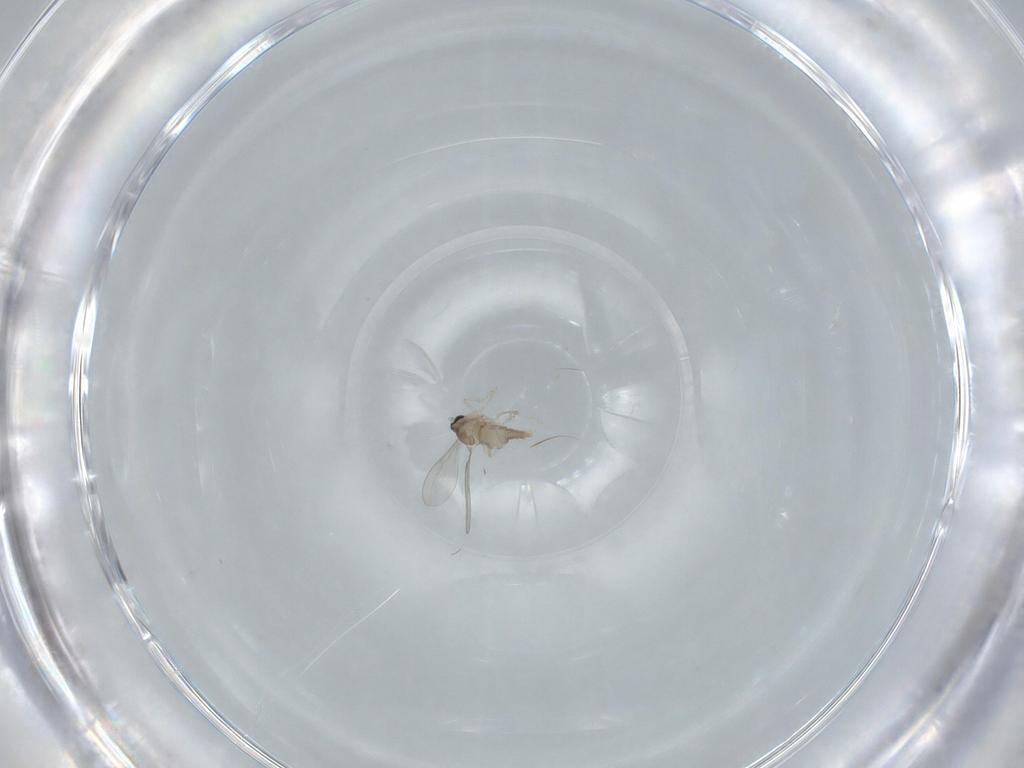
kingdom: Animalia
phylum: Arthropoda
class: Insecta
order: Diptera
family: Cecidomyiidae
